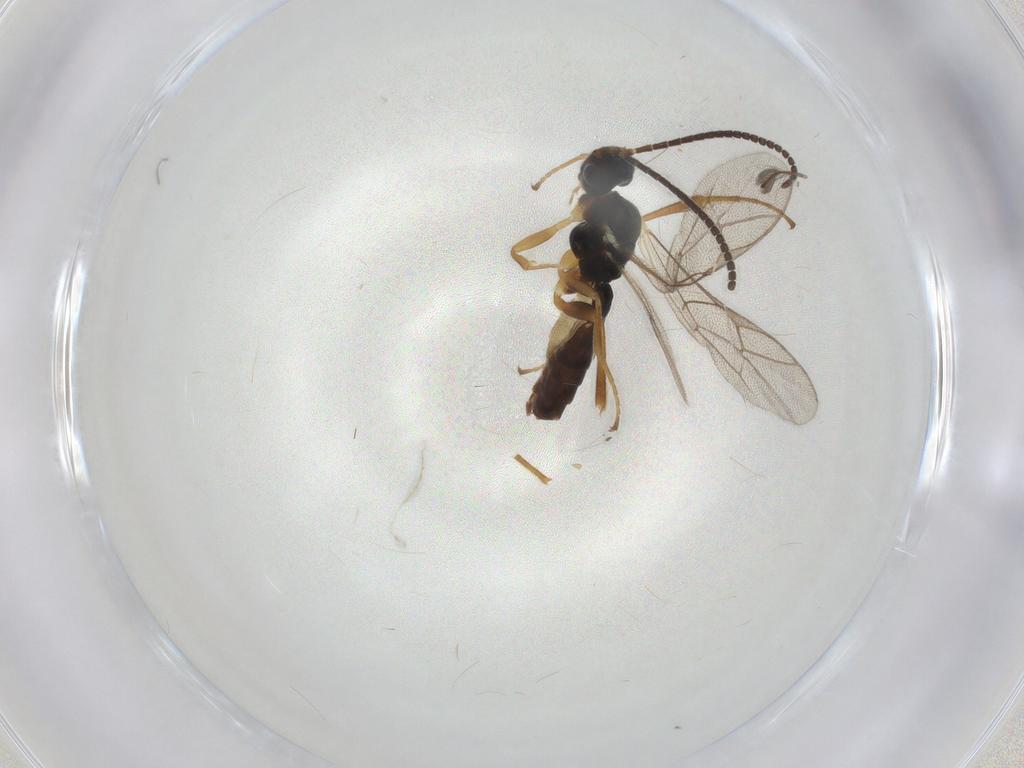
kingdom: Animalia
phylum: Arthropoda
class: Insecta
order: Hymenoptera
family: Ichneumonidae
